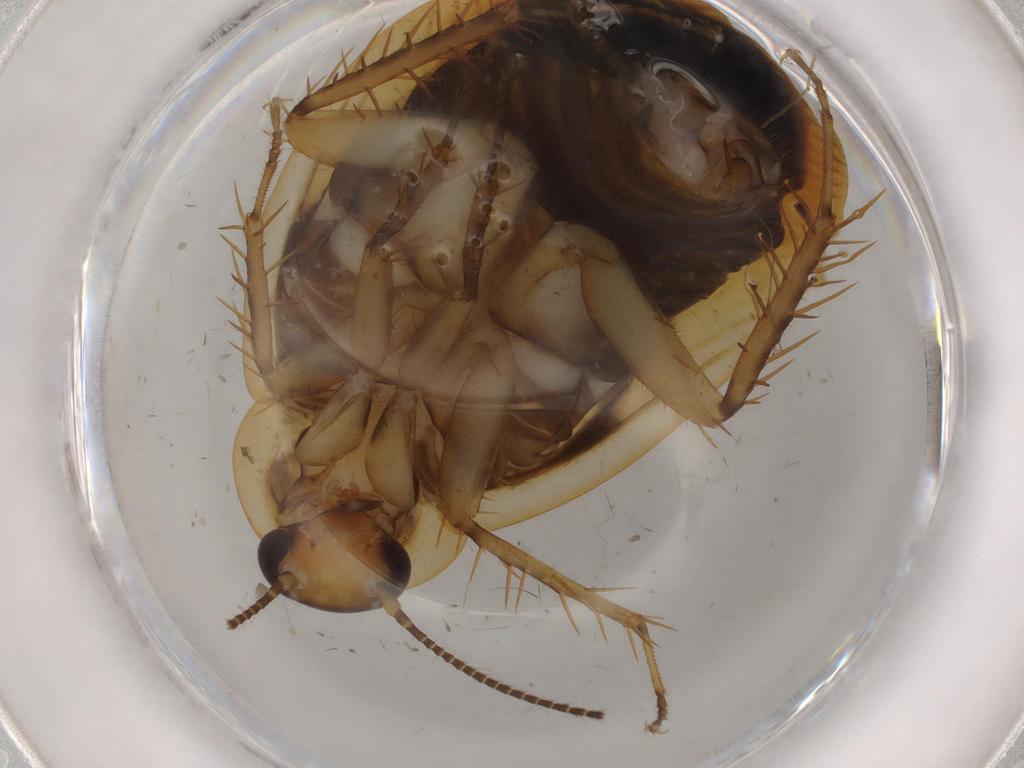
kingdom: Animalia
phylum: Arthropoda
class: Insecta
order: Blattodea
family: Ectobiidae
